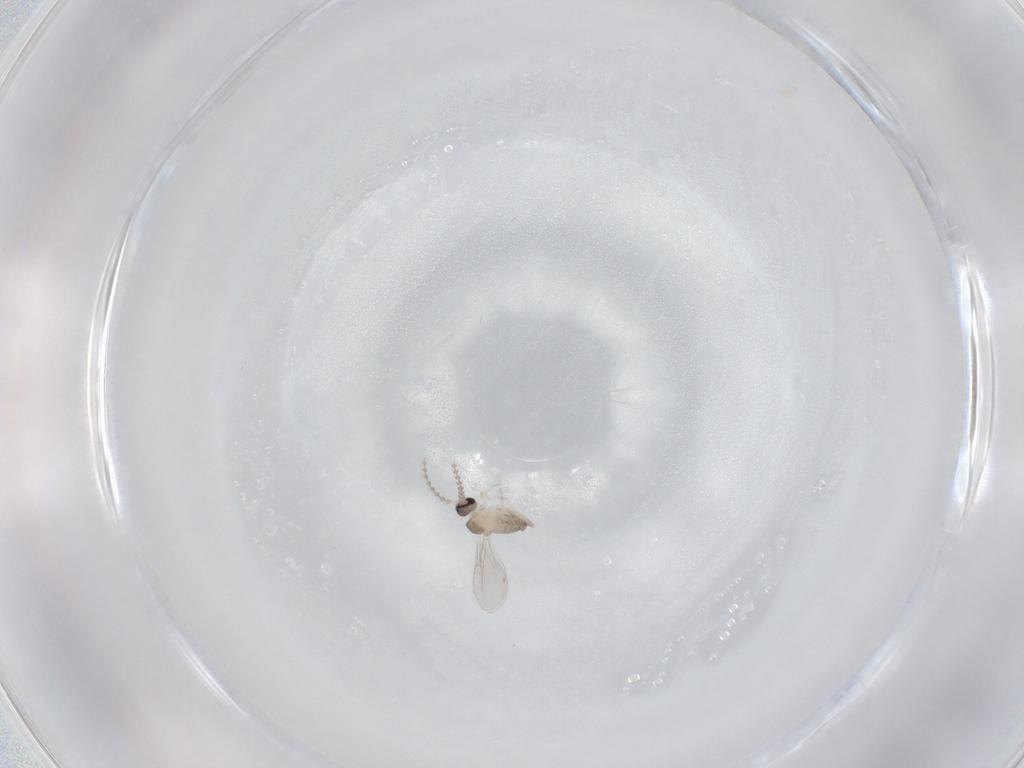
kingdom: Animalia
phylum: Arthropoda
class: Insecta
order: Diptera
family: Cecidomyiidae
